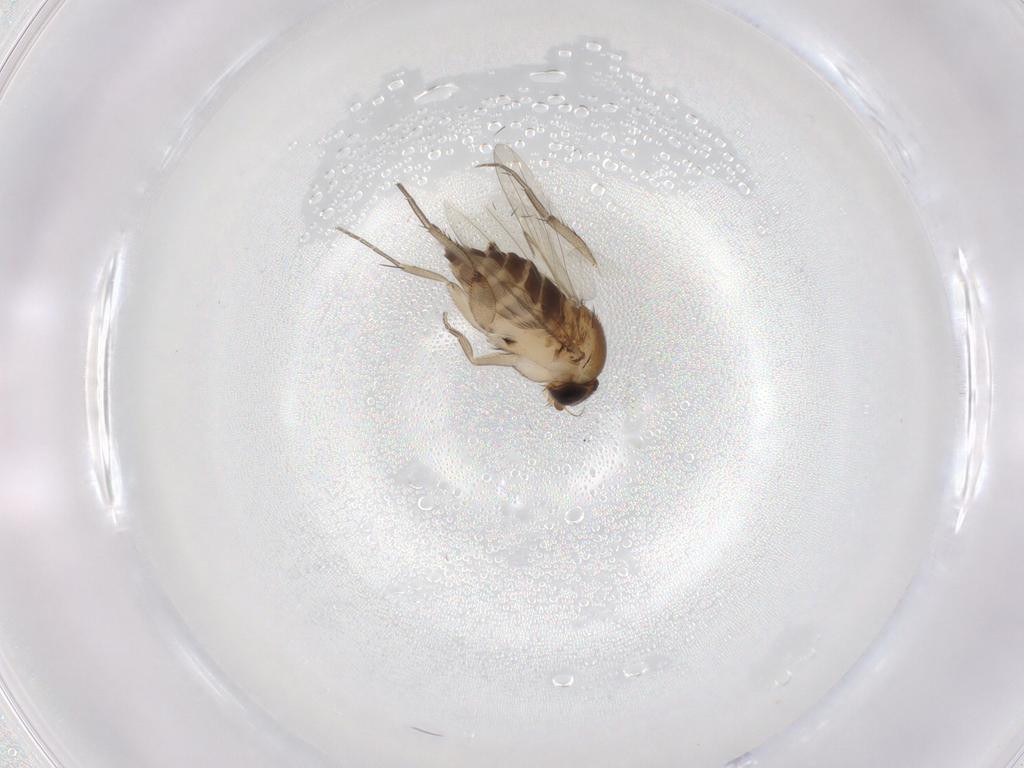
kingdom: Animalia
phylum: Arthropoda
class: Insecta
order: Diptera
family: Phoridae
